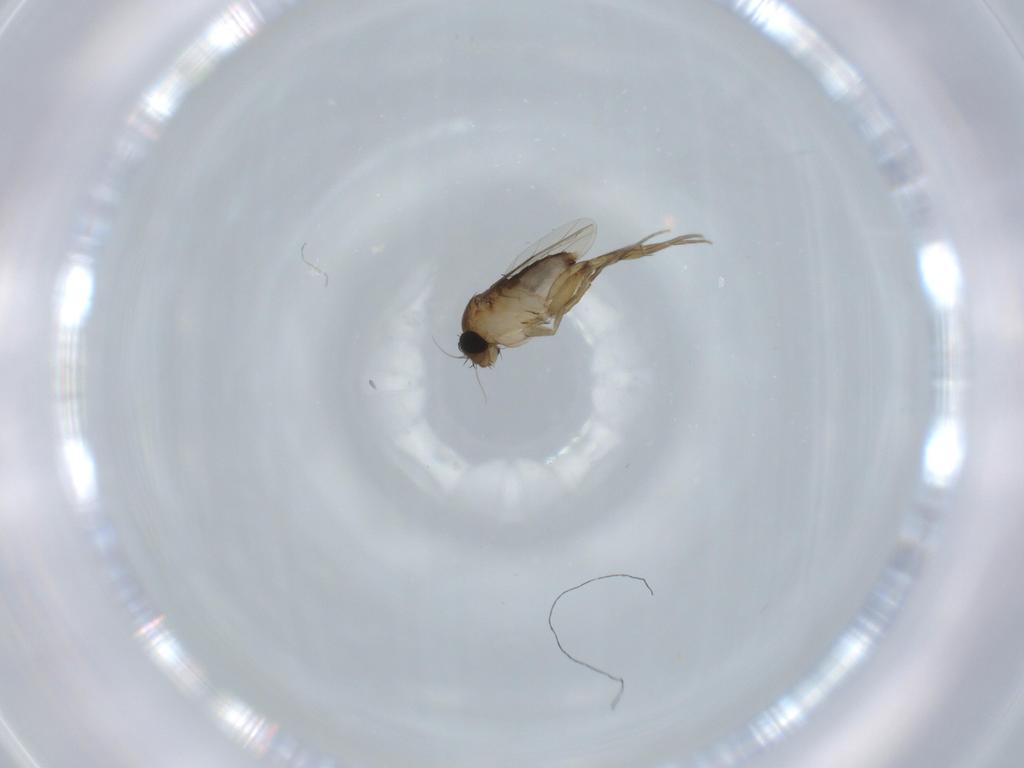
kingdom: Animalia
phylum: Arthropoda
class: Insecta
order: Diptera
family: Phoridae
